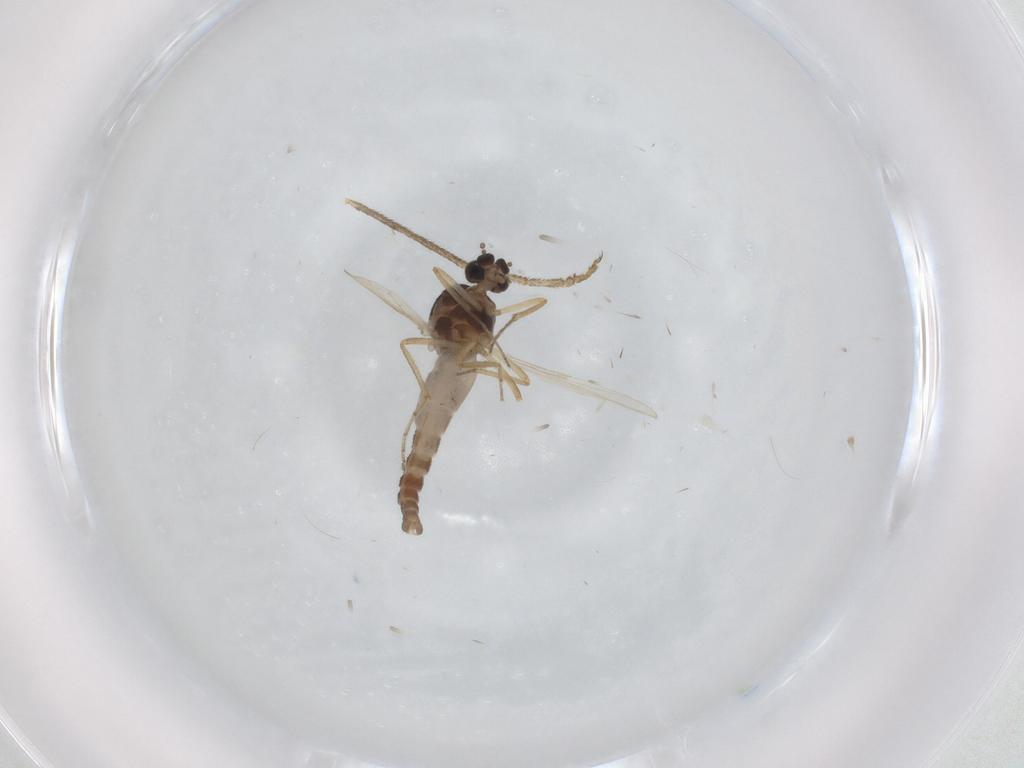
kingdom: Animalia
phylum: Arthropoda
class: Insecta
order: Diptera
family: Ceratopogonidae
